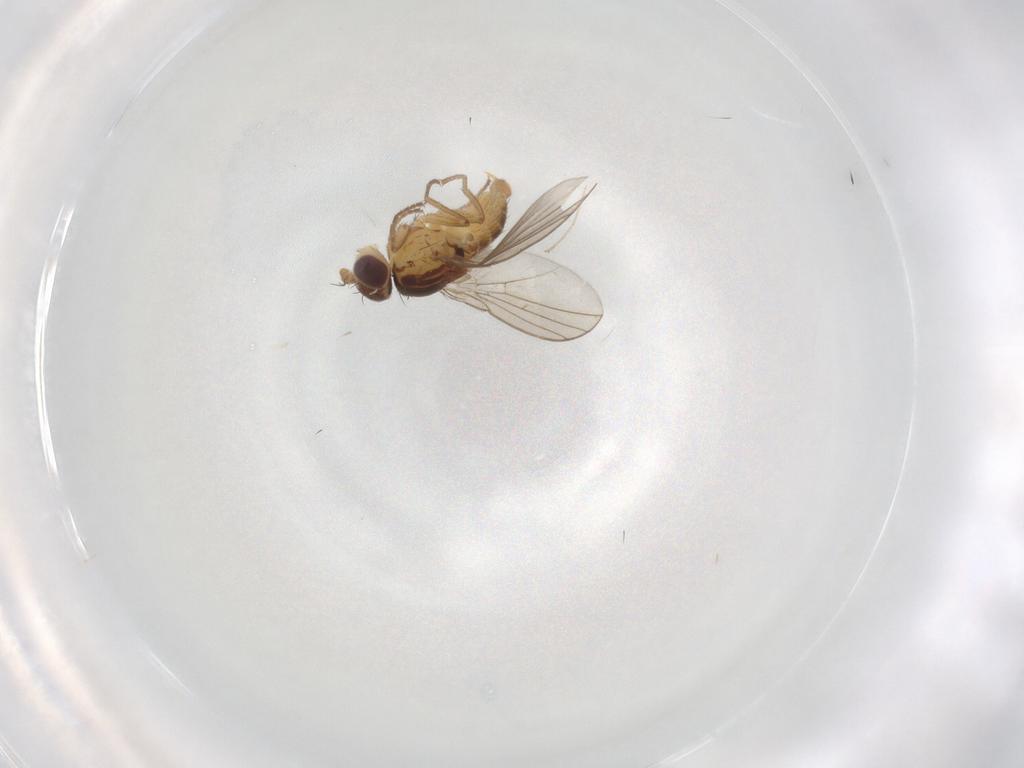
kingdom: Animalia
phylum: Arthropoda
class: Insecta
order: Diptera
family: Agromyzidae
